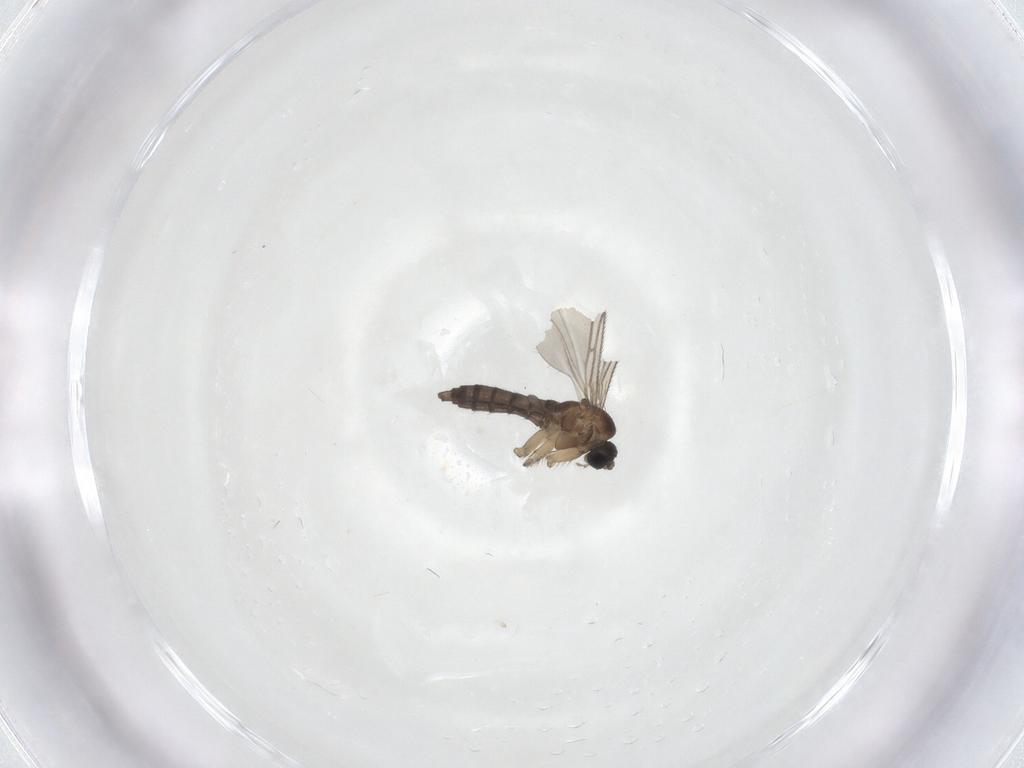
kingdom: Animalia
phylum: Arthropoda
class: Insecta
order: Diptera
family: Sciaridae
